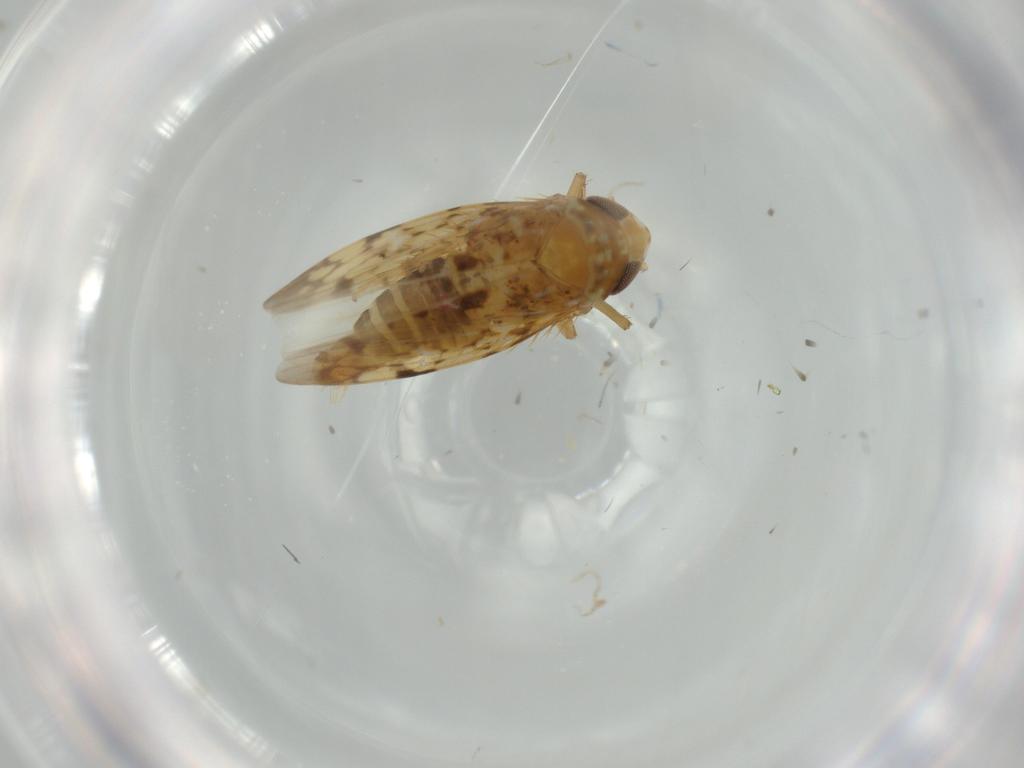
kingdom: Animalia
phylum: Arthropoda
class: Insecta
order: Hemiptera
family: Cicadellidae
